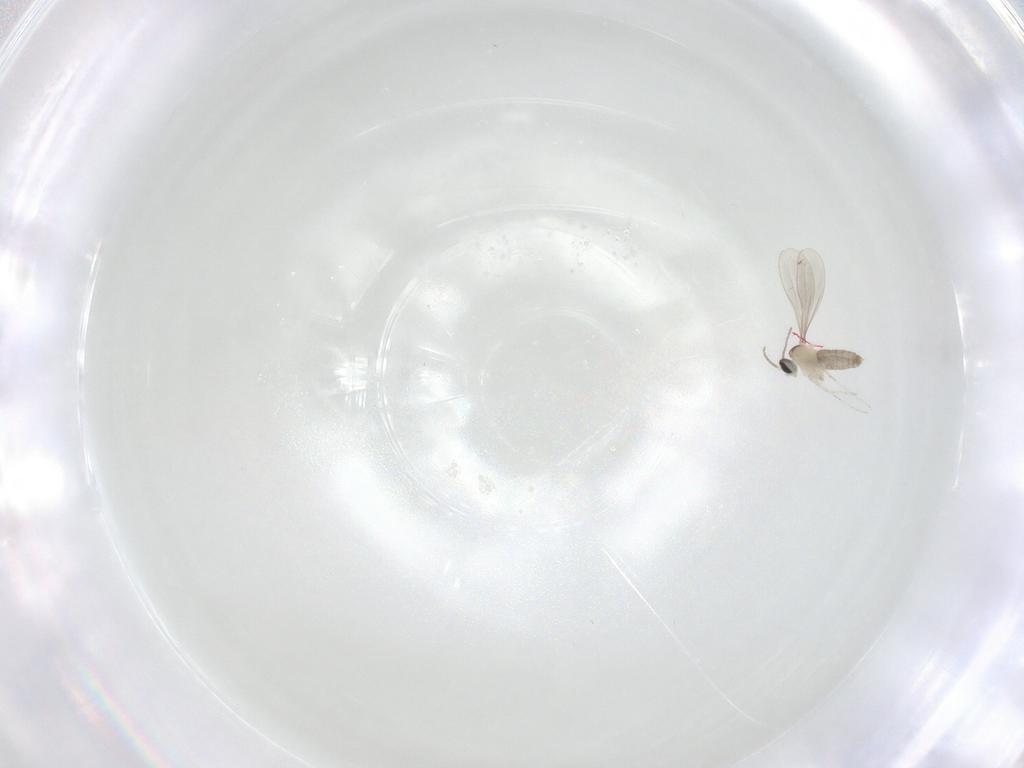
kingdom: Animalia
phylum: Arthropoda
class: Insecta
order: Diptera
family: Cecidomyiidae
